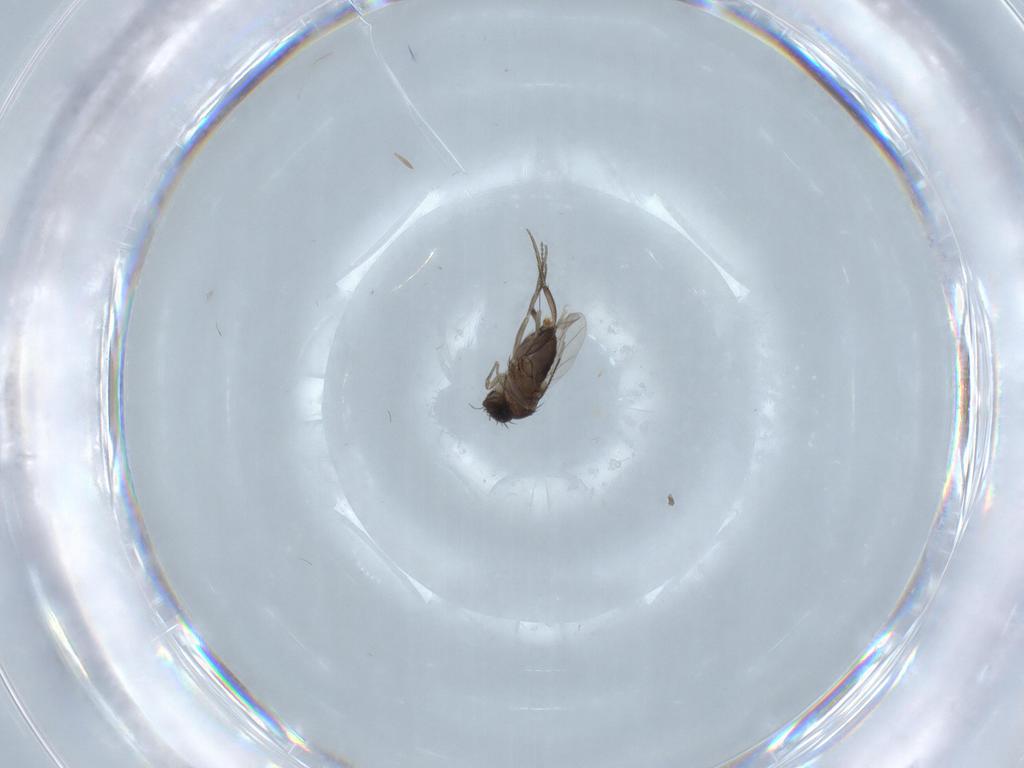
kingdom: Animalia
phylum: Arthropoda
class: Insecta
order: Diptera
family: Phoridae
